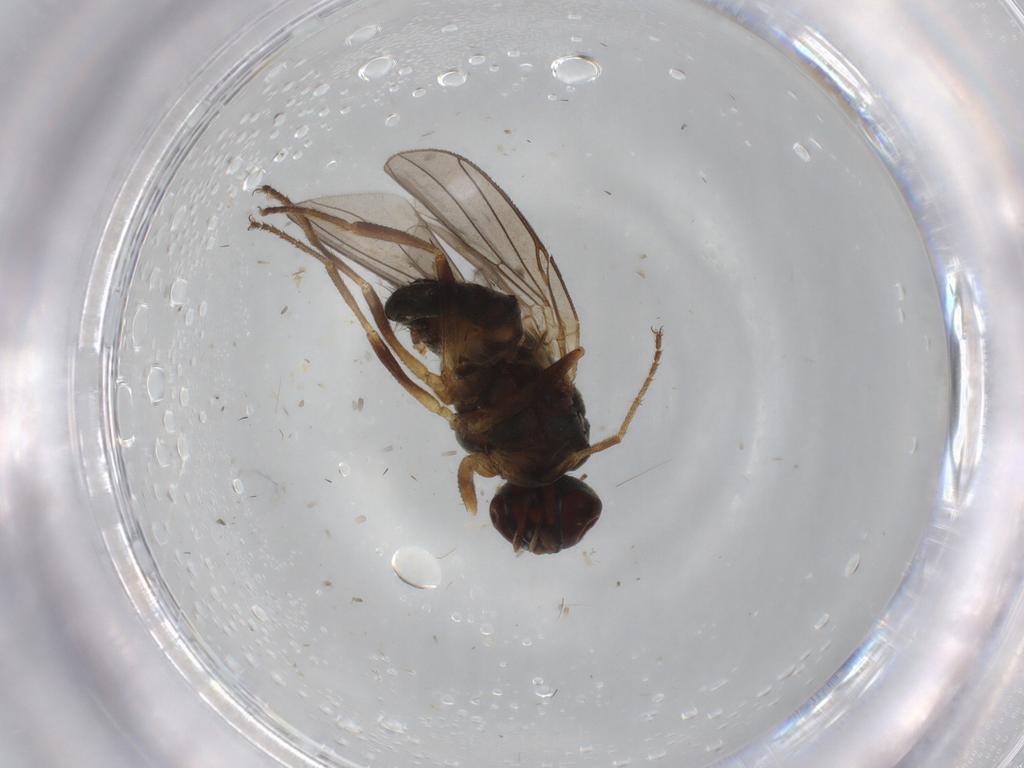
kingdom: Animalia
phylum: Arthropoda
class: Insecta
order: Diptera
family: Muscidae
